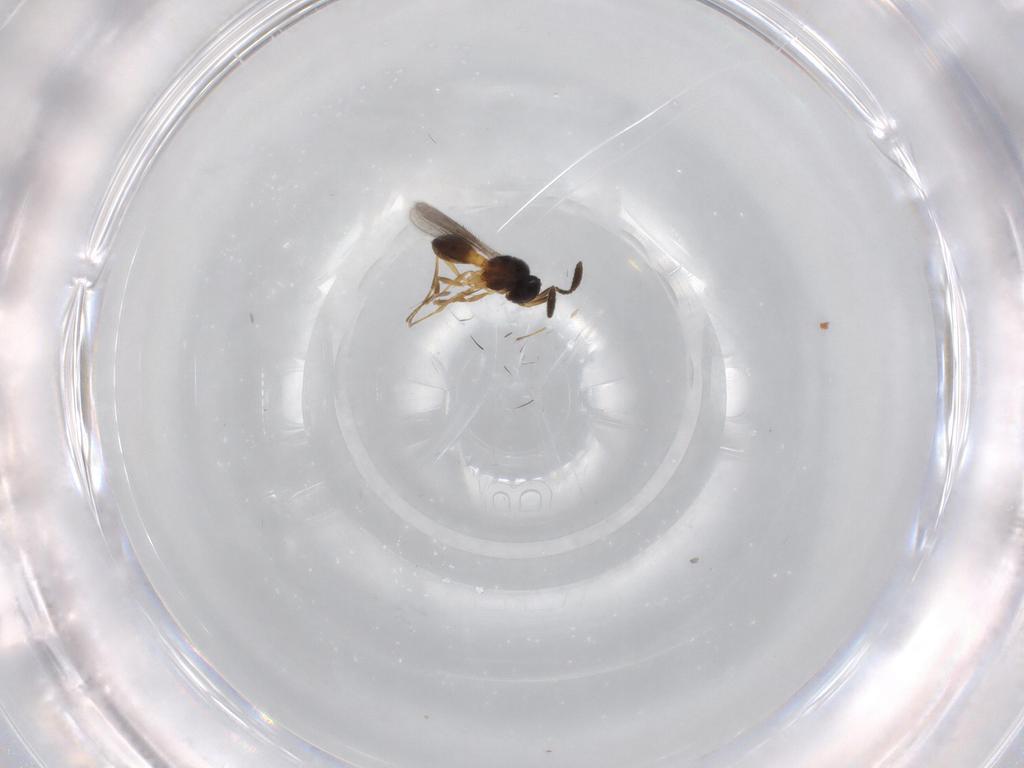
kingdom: Animalia
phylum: Arthropoda
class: Insecta
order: Hymenoptera
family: Scelionidae
